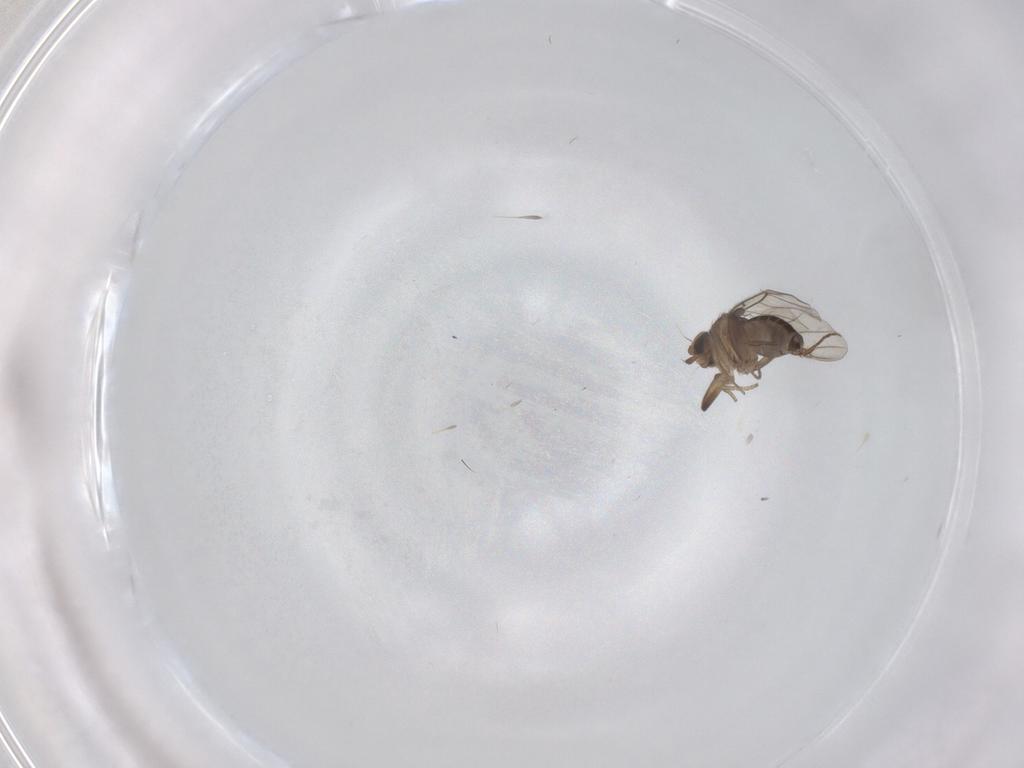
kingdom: Animalia
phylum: Arthropoda
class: Insecta
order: Diptera
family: Phoridae
